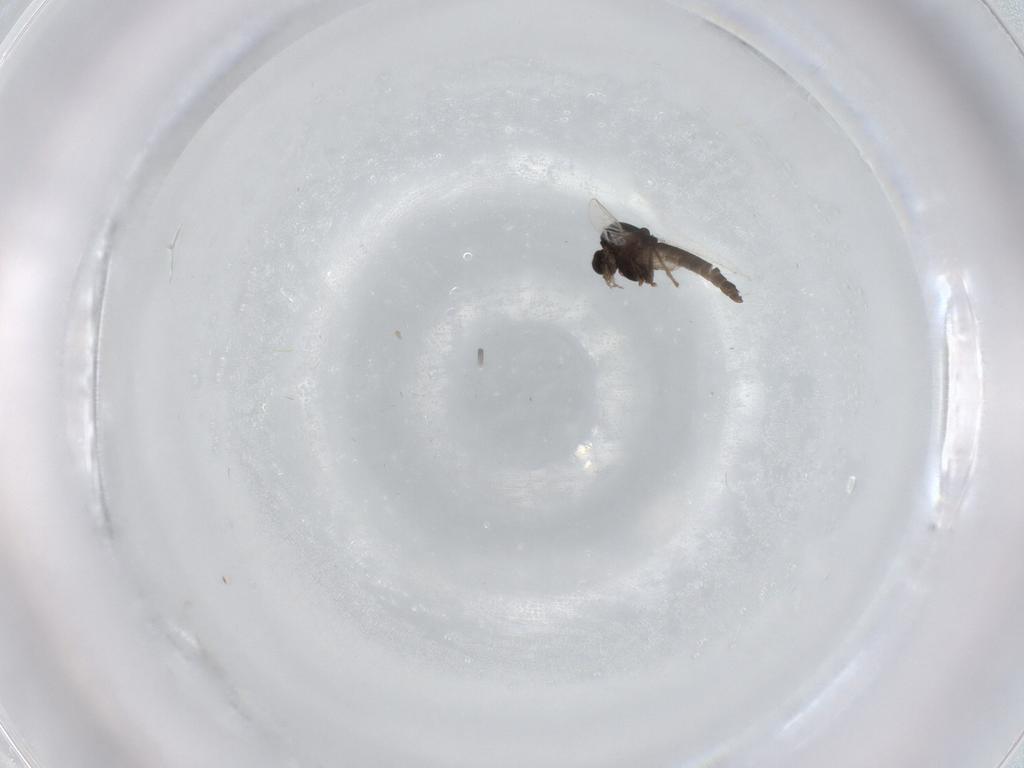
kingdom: Animalia
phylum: Arthropoda
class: Insecta
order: Diptera
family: Chironomidae
